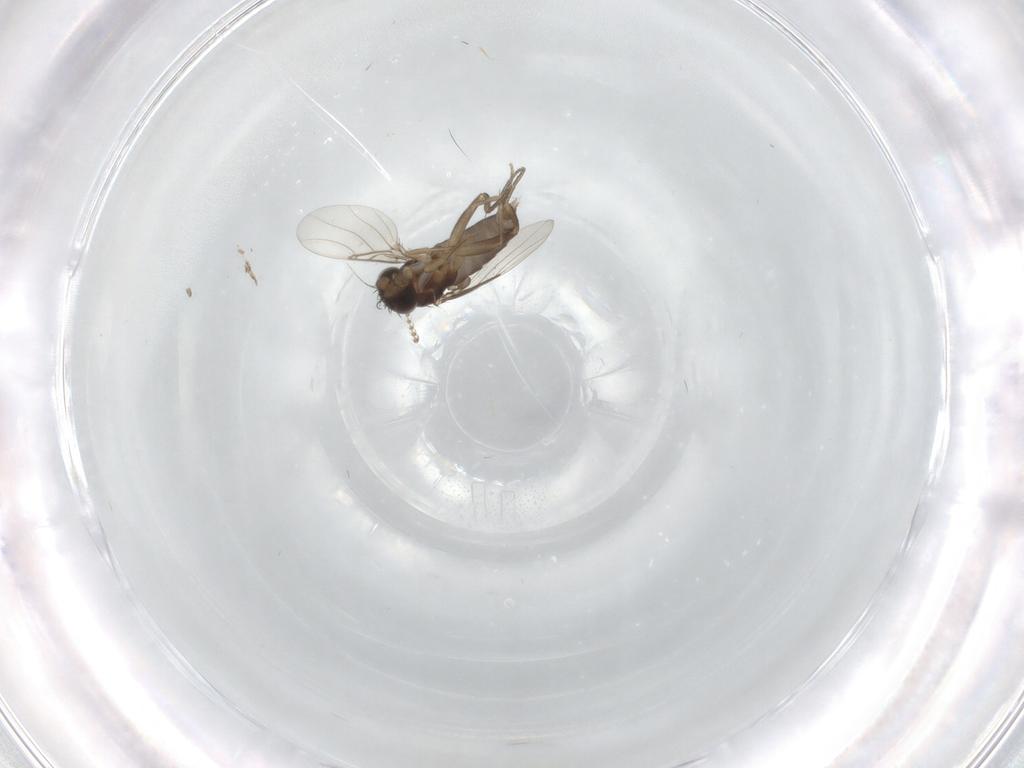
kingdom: Animalia
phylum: Arthropoda
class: Insecta
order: Diptera
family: Phoridae
